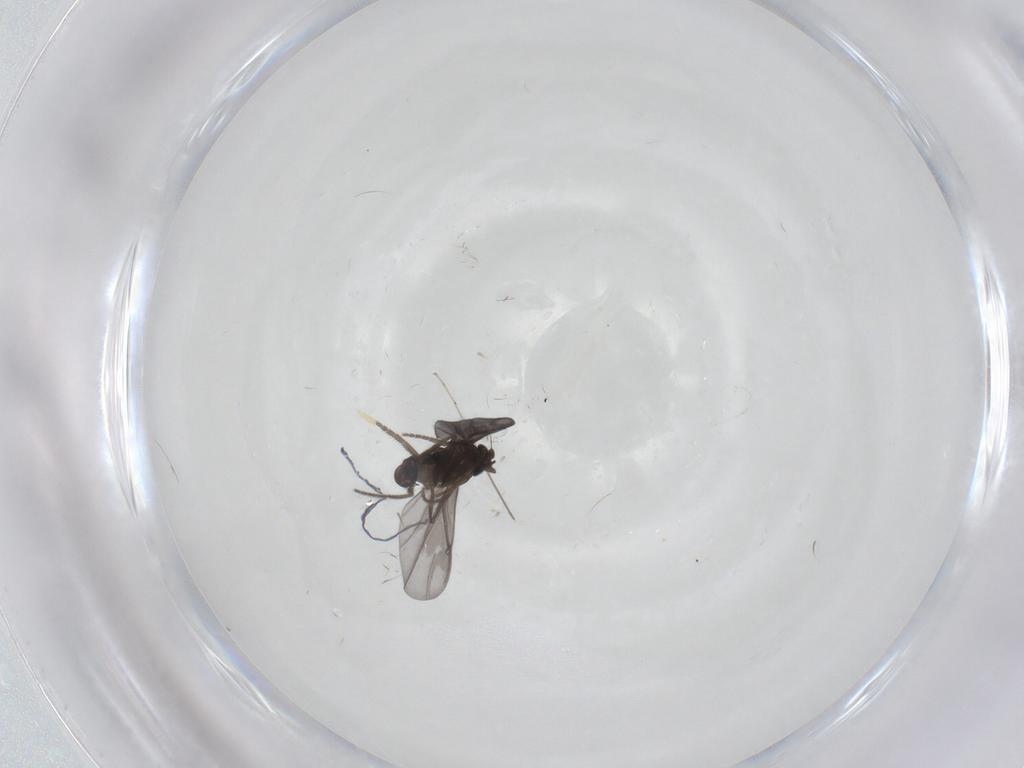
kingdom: Animalia
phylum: Arthropoda
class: Insecta
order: Diptera
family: Phoridae
